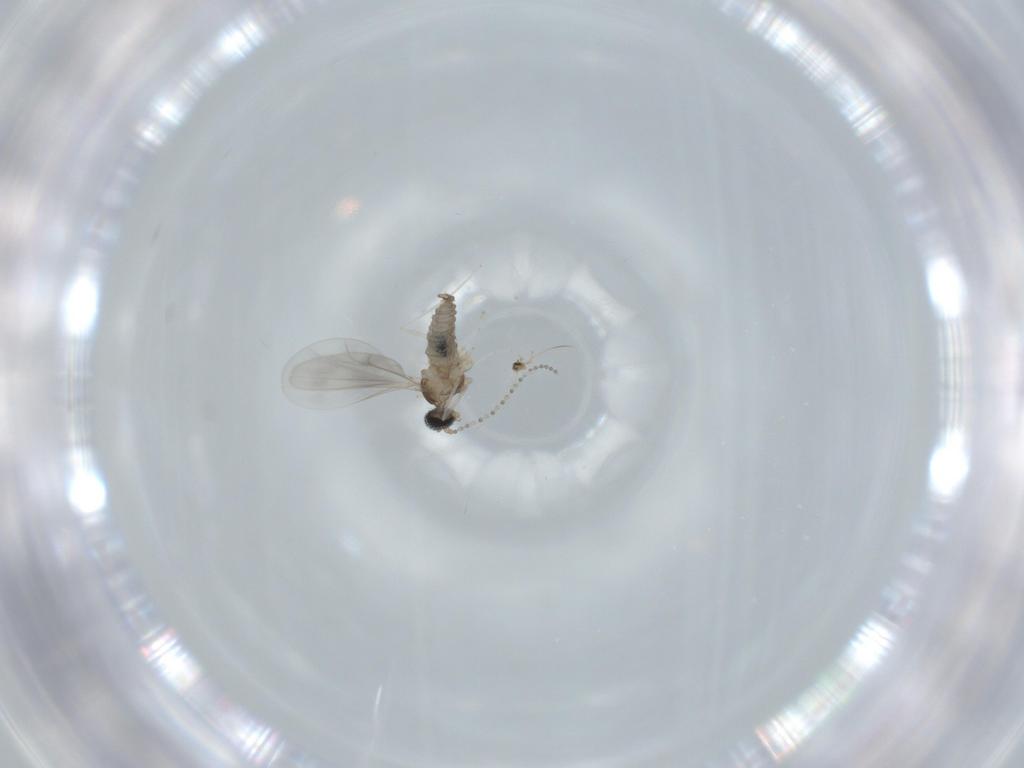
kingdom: Animalia
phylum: Arthropoda
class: Insecta
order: Diptera
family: Cecidomyiidae
